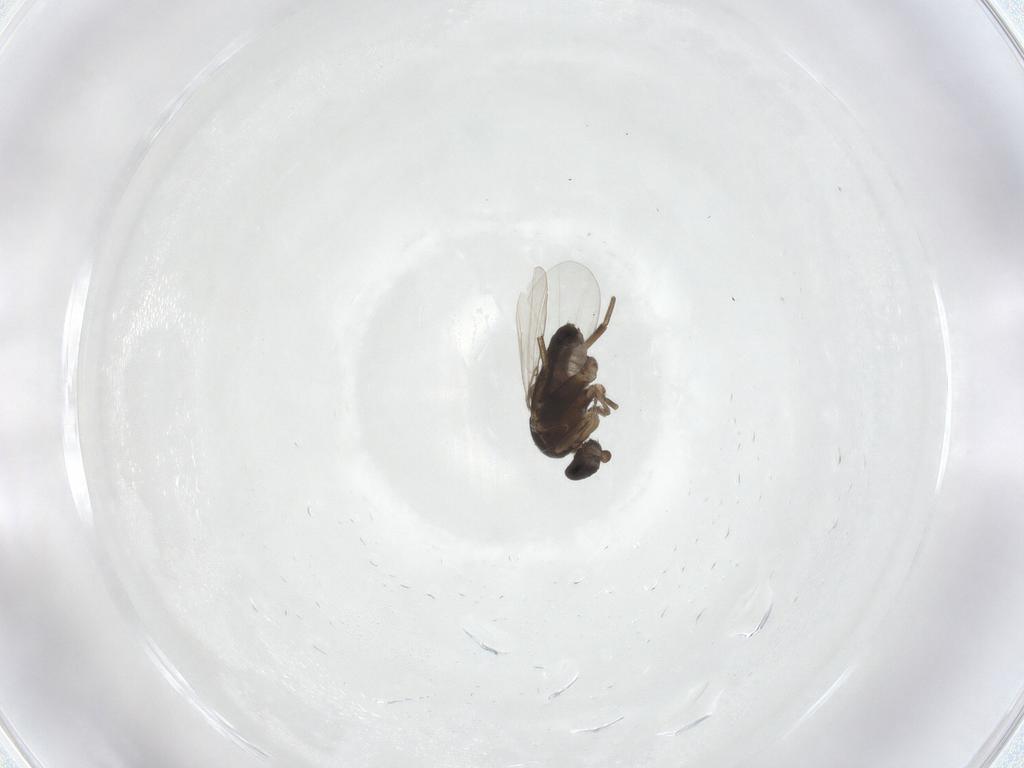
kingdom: Animalia
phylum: Arthropoda
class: Insecta
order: Diptera
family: Phoridae
